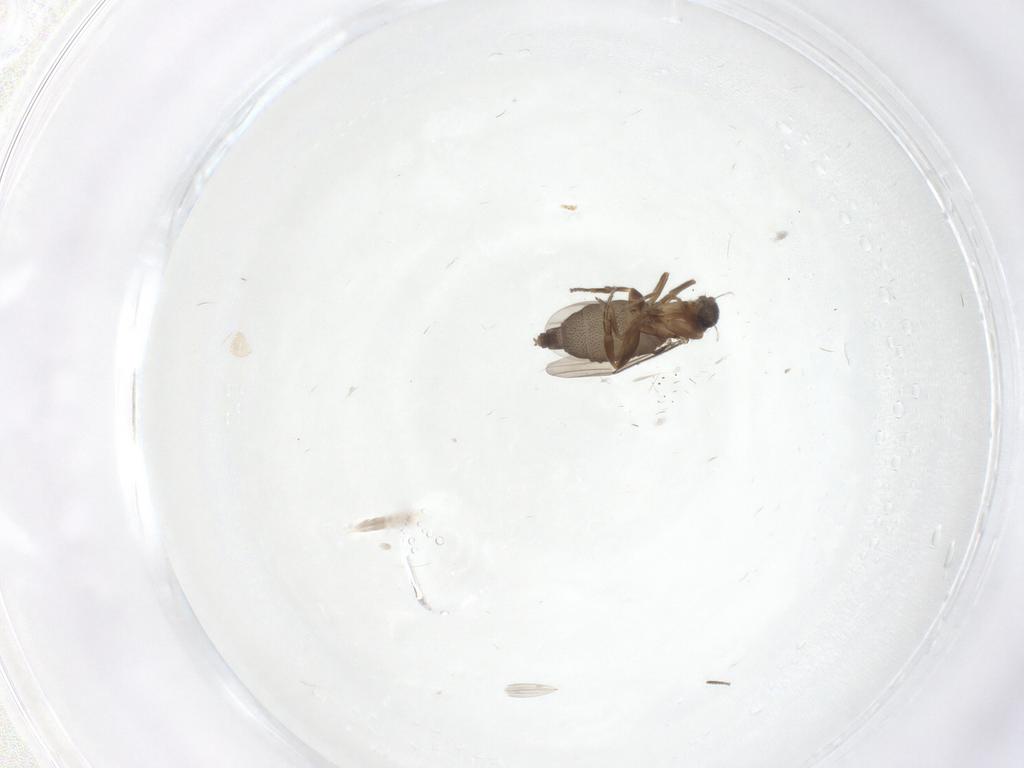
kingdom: Animalia
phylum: Arthropoda
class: Insecta
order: Diptera
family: Phoridae
